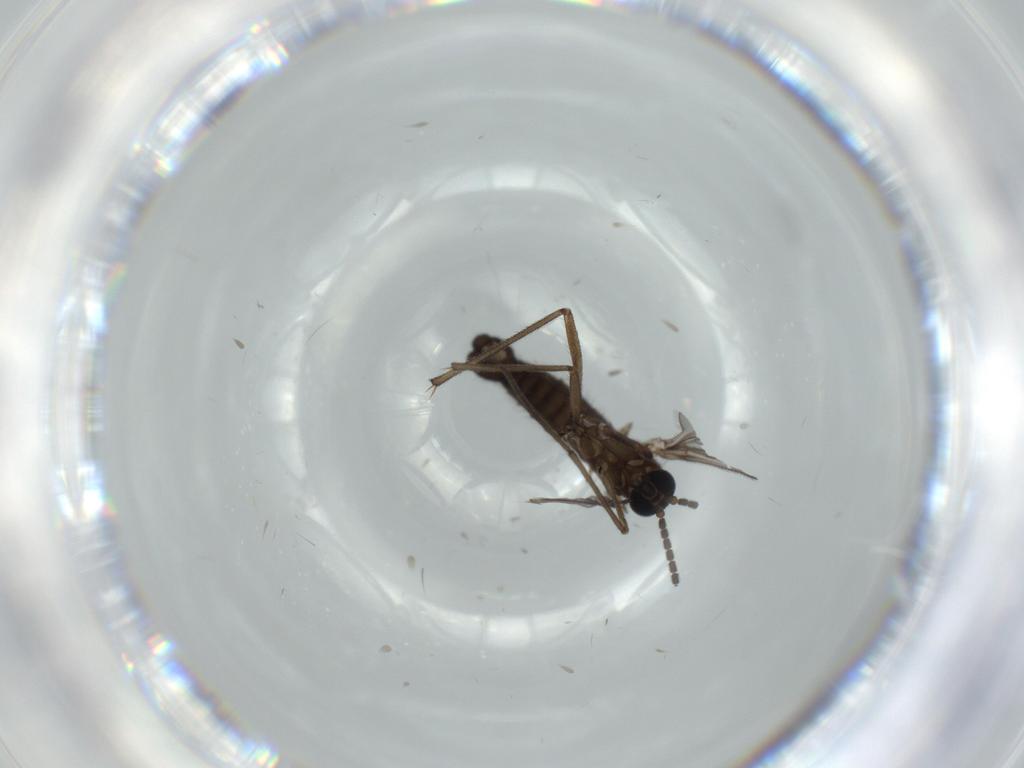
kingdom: Animalia
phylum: Arthropoda
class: Insecta
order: Diptera
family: Sciaridae
